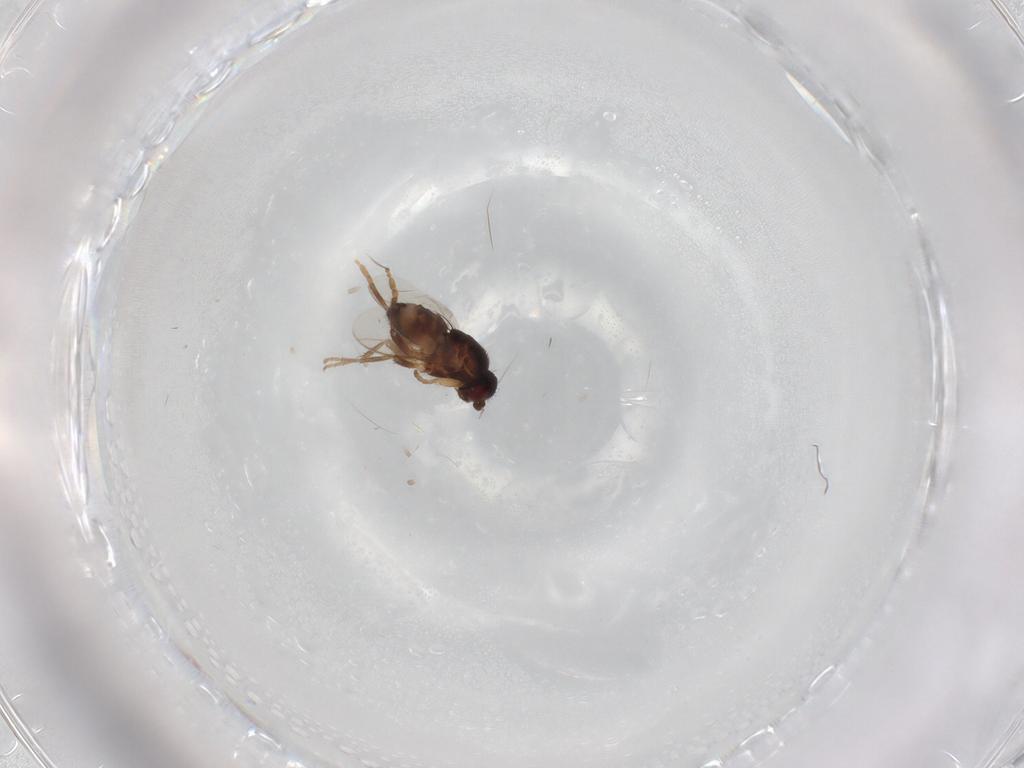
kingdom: Animalia
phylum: Arthropoda
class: Insecta
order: Diptera
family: Sphaeroceridae
